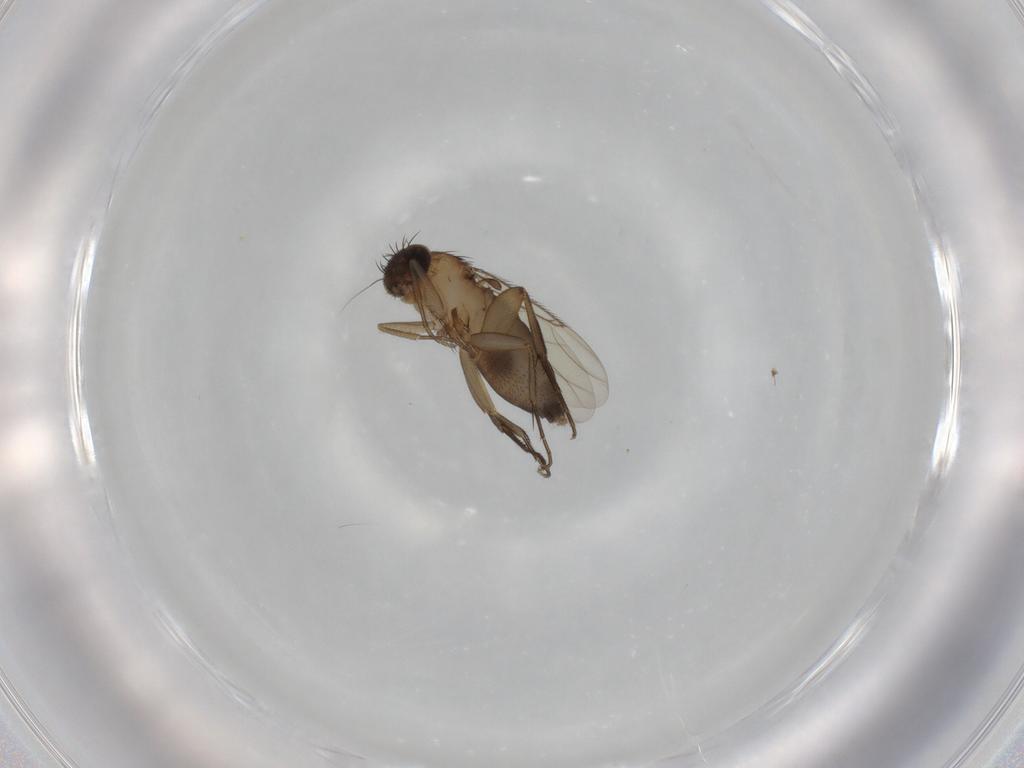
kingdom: Animalia
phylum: Arthropoda
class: Insecta
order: Diptera
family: Phoridae
